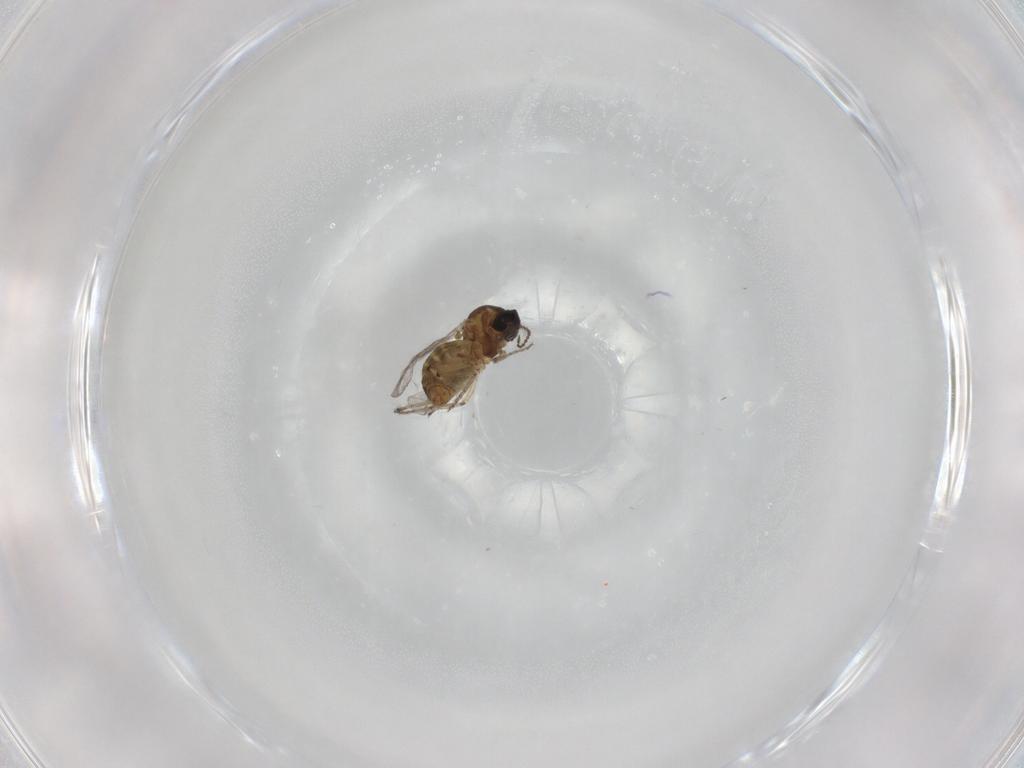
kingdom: Animalia
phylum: Arthropoda
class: Insecta
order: Diptera
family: Ceratopogonidae
